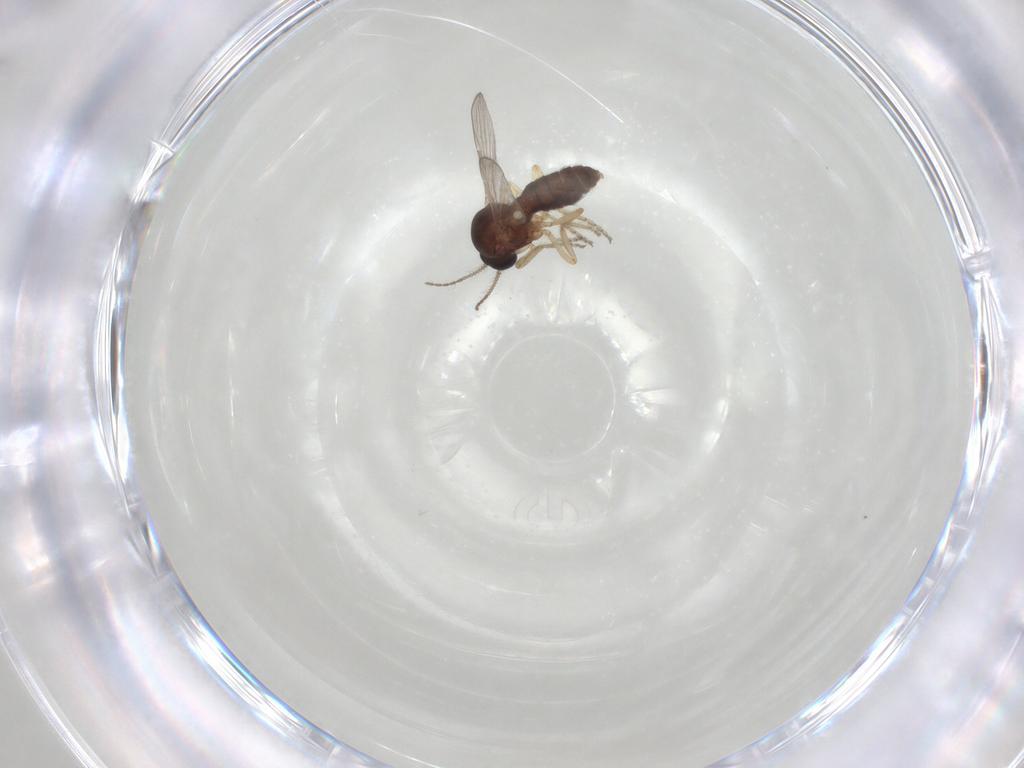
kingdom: Animalia
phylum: Arthropoda
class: Insecta
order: Diptera
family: Ceratopogonidae
